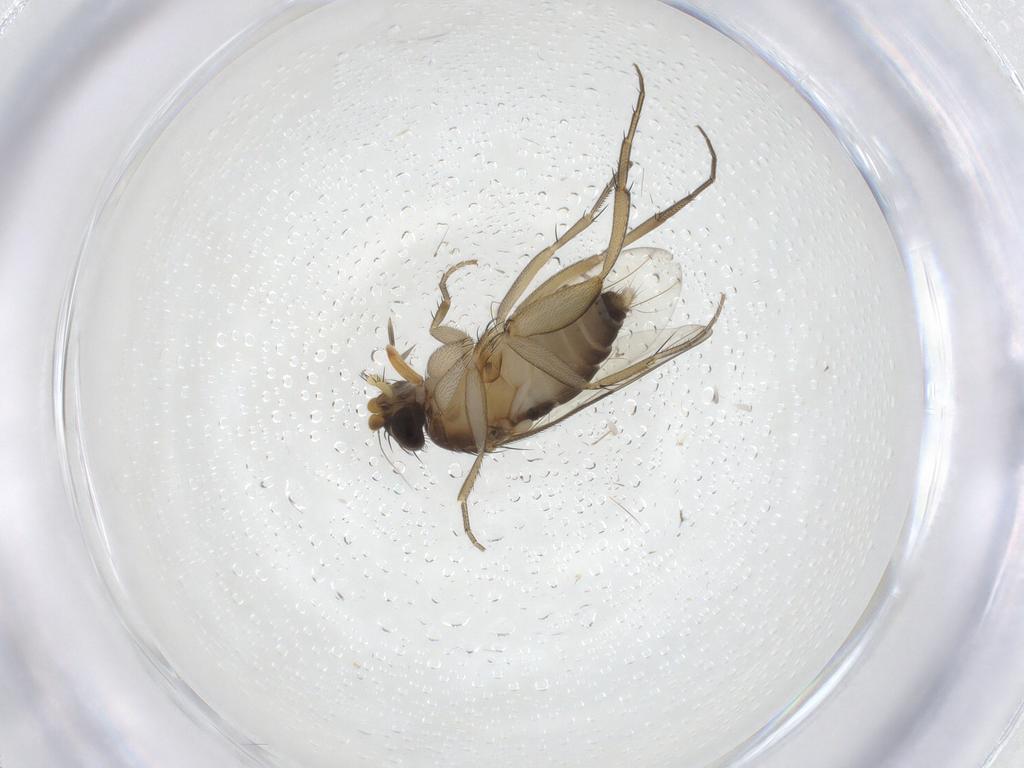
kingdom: Animalia
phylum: Arthropoda
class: Insecta
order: Diptera
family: Phoridae
